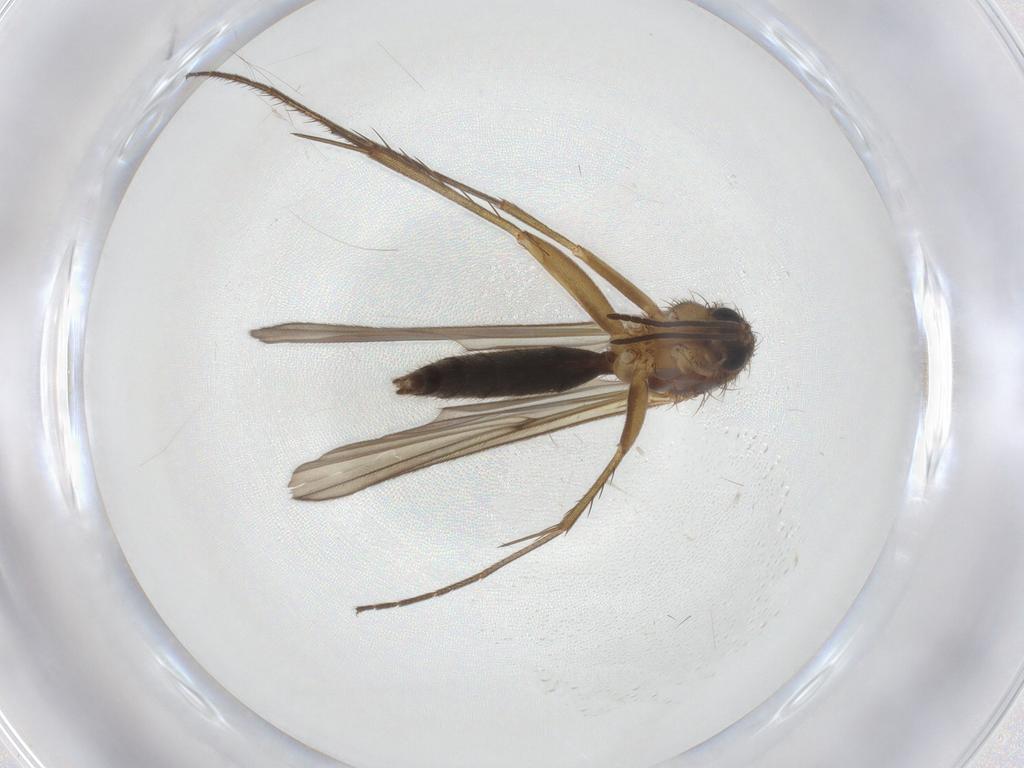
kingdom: Animalia
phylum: Arthropoda
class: Insecta
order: Diptera
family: Mycetophilidae
